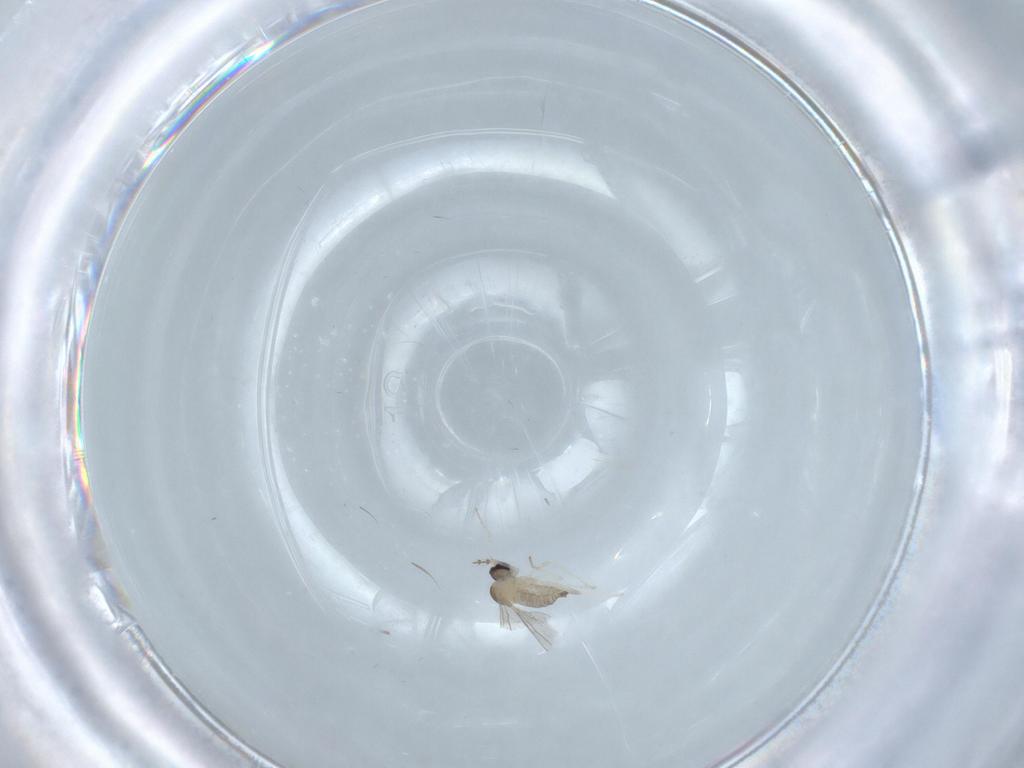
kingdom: Animalia
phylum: Arthropoda
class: Insecta
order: Diptera
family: Cecidomyiidae
